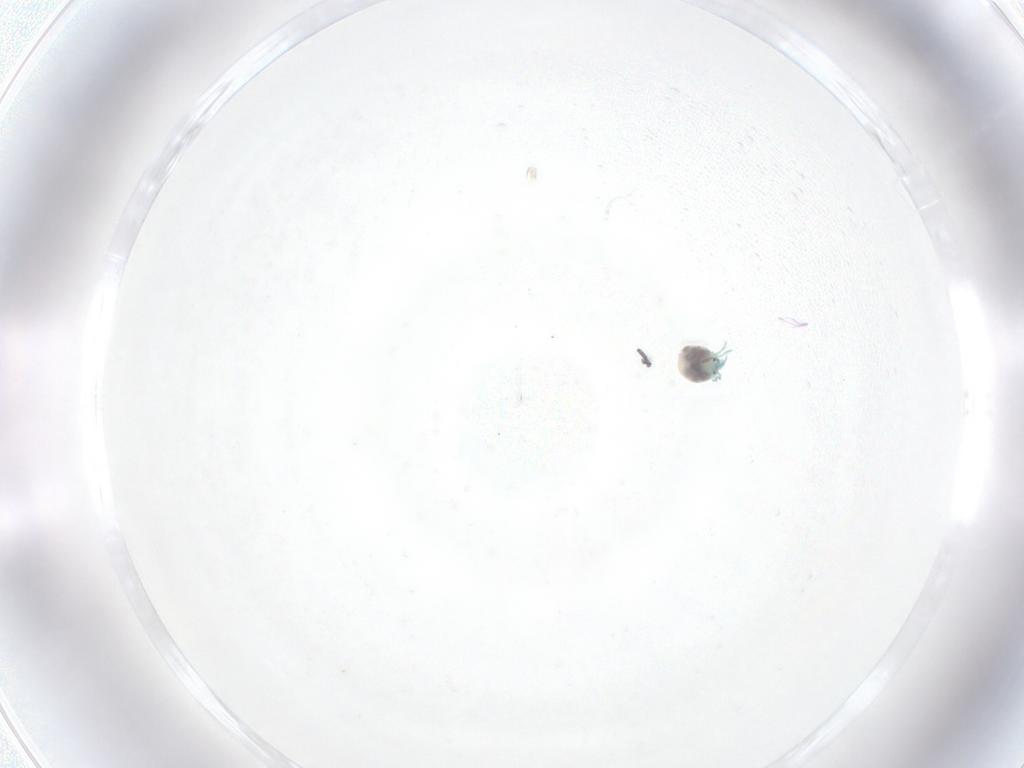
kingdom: Animalia
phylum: Arthropoda
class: Arachnida
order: Trombidiformes
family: Arrenuridae
